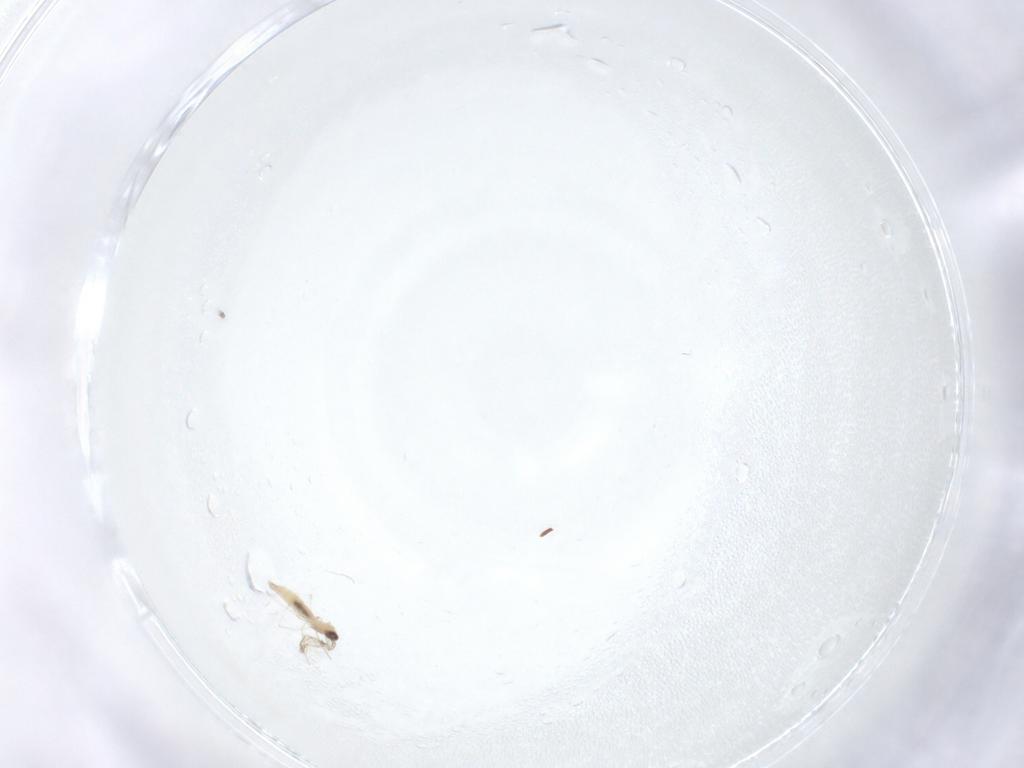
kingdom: Animalia
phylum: Arthropoda
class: Insecta
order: Diptera
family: Cecidomyiidae
